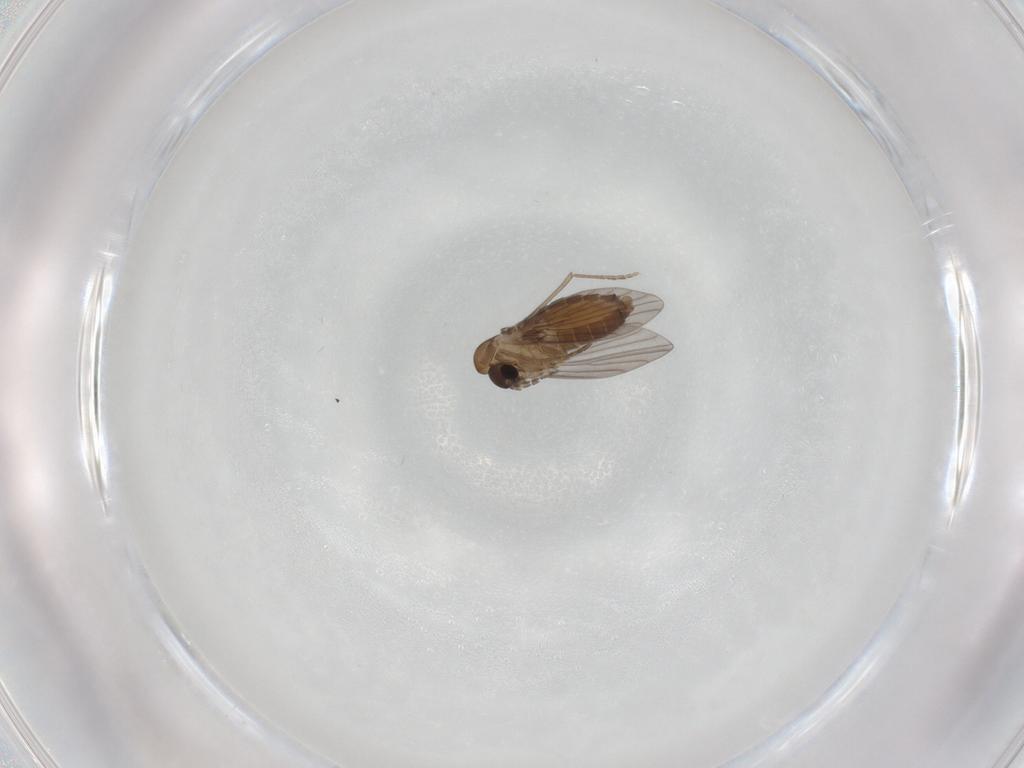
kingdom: Animalia
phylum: Arthropoda
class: Insecta
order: Diptera
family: Cecidomyiidae
